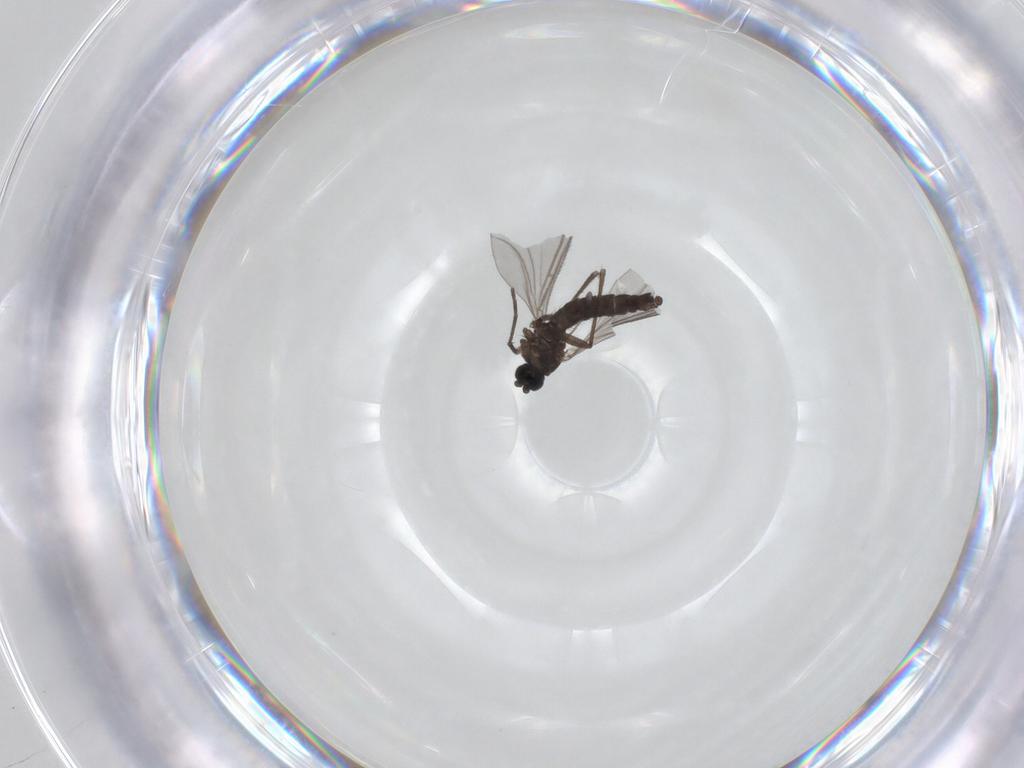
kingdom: Animalia
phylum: Arthropoda
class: Insecta
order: Diptera
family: Sciaridae
